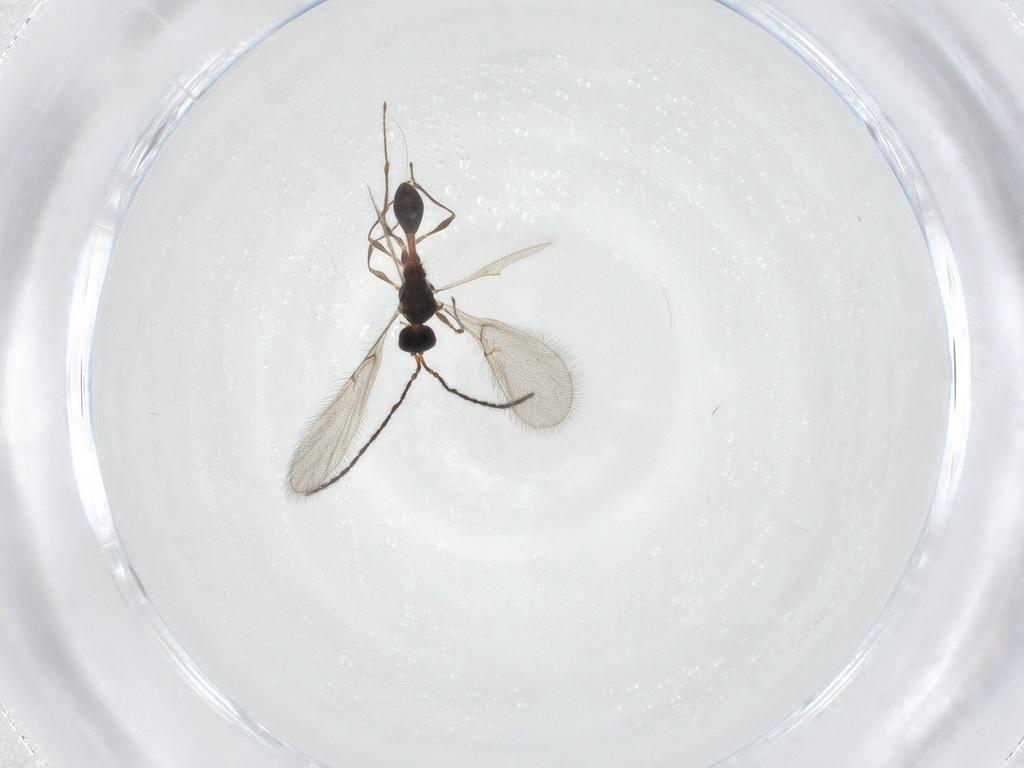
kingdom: Animalia
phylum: Arthropoda
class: Insecta
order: Hymenoptera
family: Diapriidae
